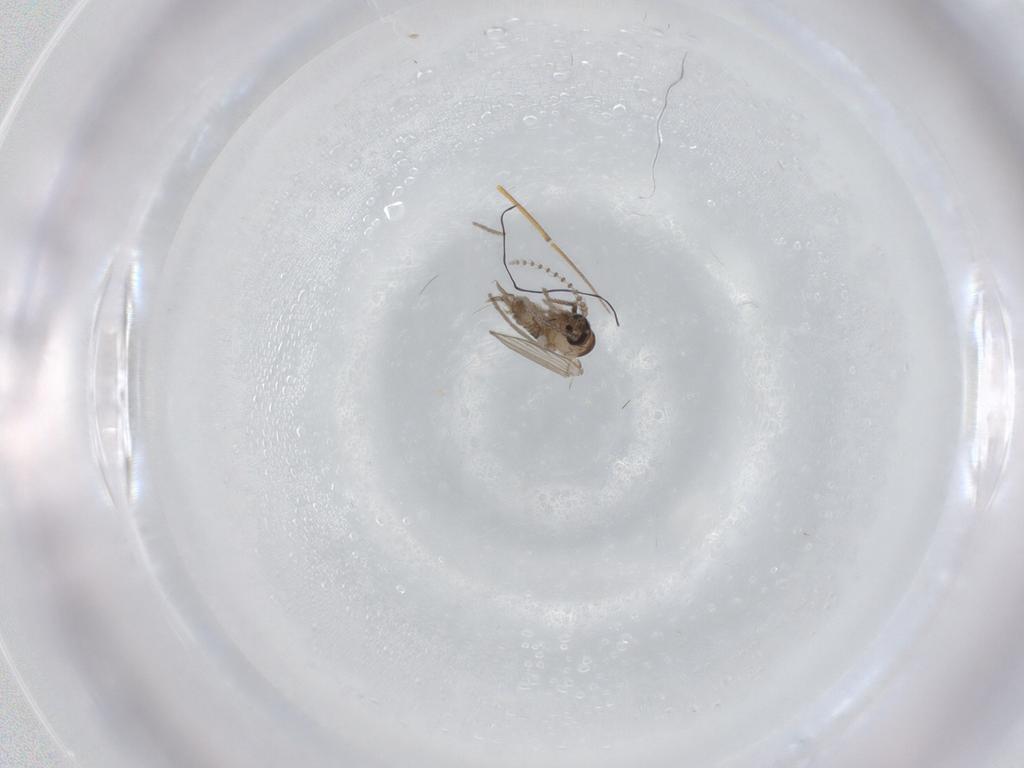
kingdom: Animalia
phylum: Arthropoda
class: Insecta
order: Diptera
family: Psychodidae
